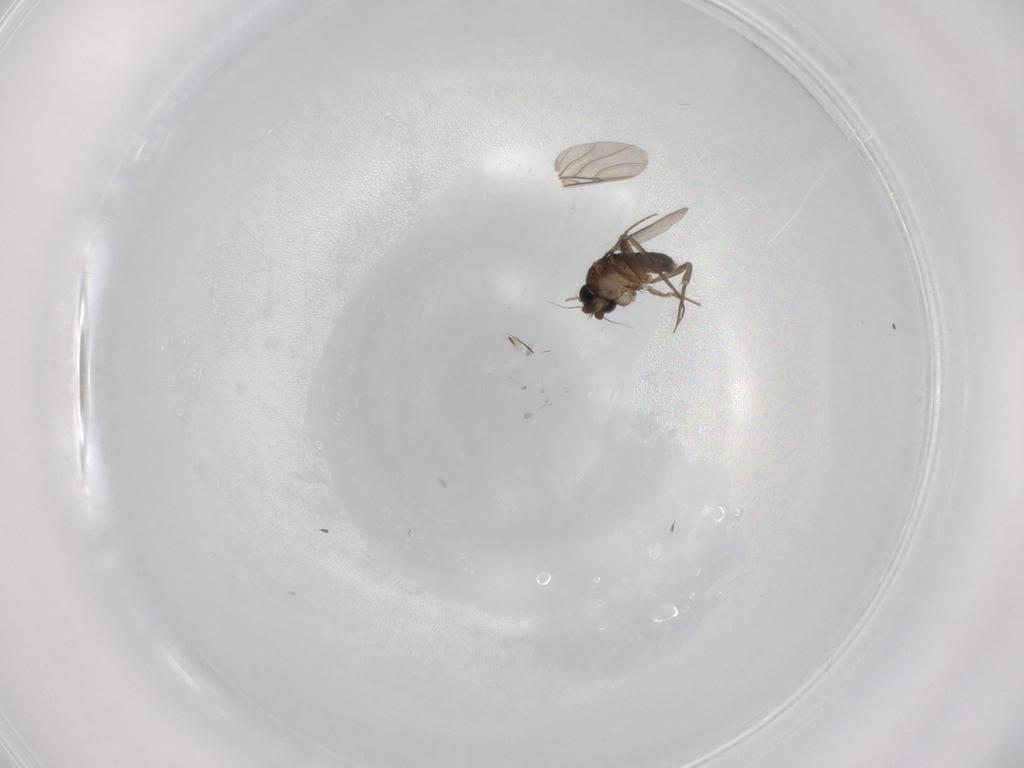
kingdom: Animalia
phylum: Arthropoda
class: Insecta
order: Diptera
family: Phoridae
